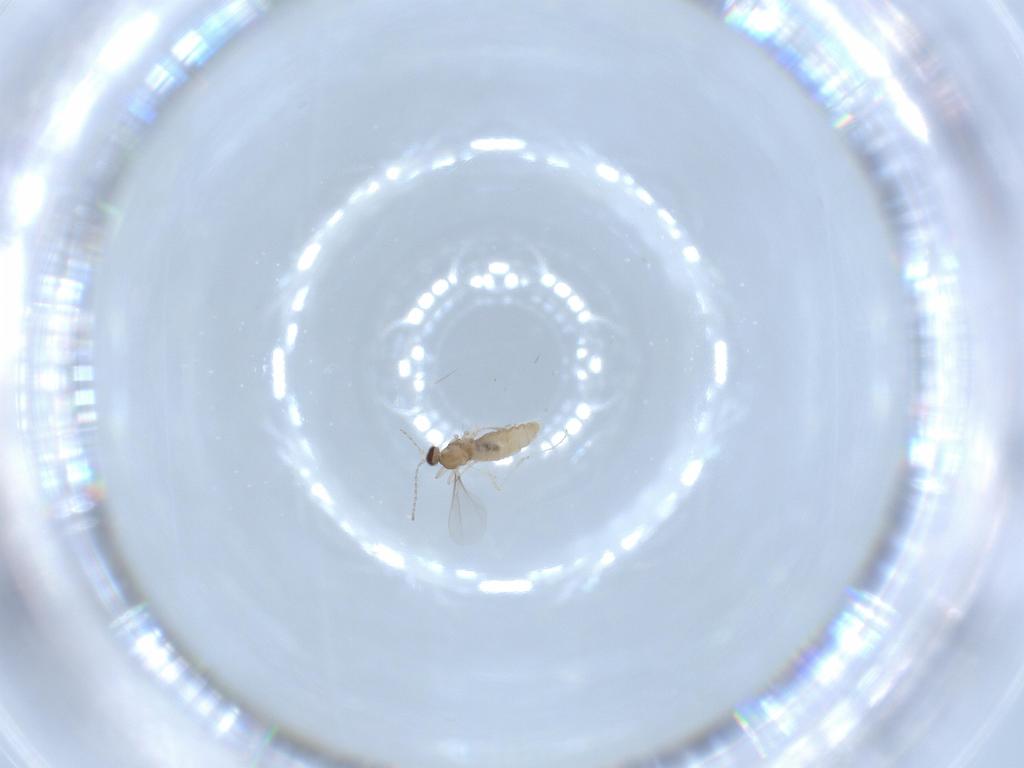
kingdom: Animalia
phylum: Arthropoda
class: Insecta
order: Diptera
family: Cecidomyiidae
